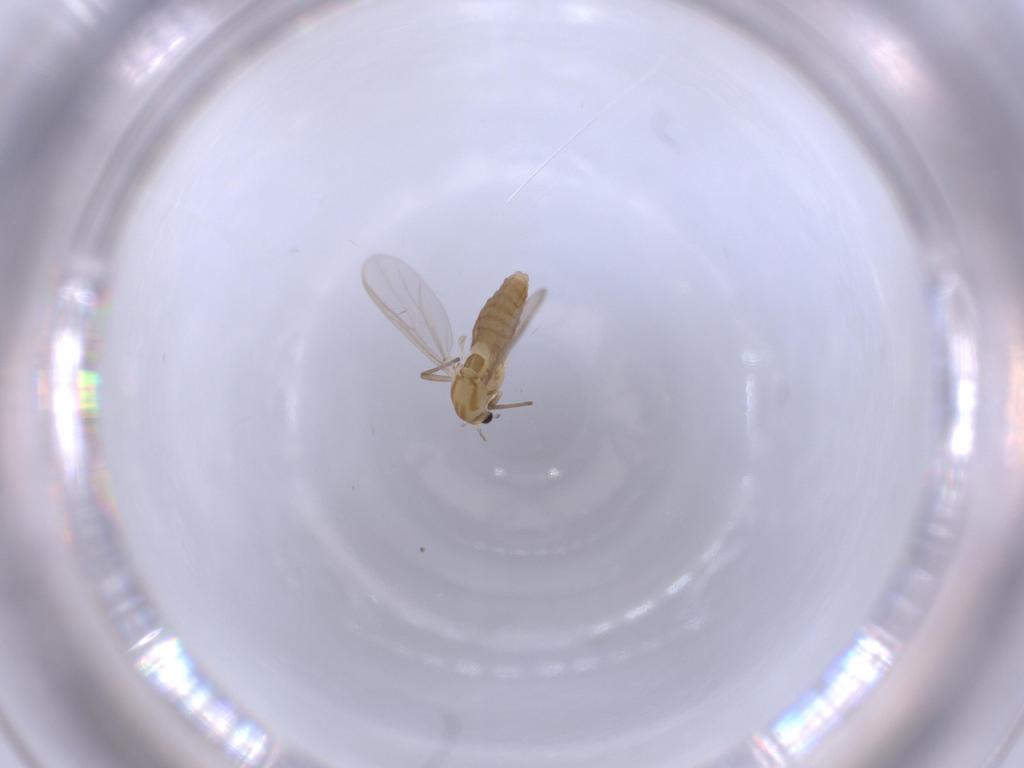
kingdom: Animalia
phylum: Arthropoda
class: Insecta
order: Diptera
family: Chironomidae
